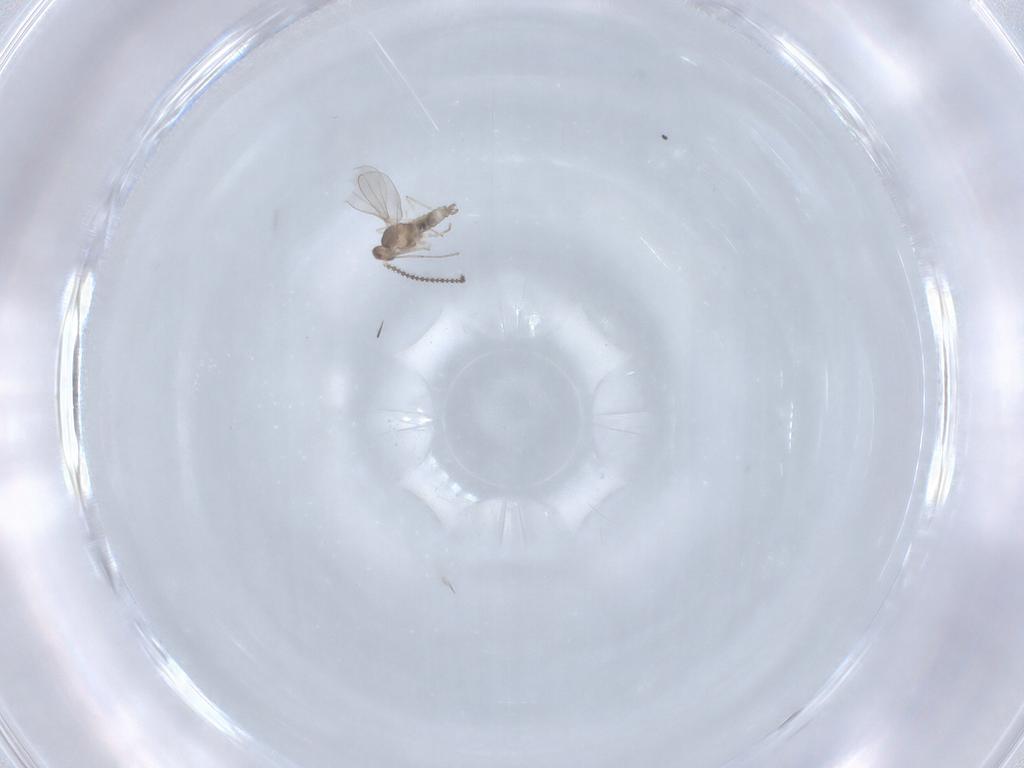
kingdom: Animalia
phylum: Arthropoda
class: Insecta
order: Diptera
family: Cecidomyiidae
